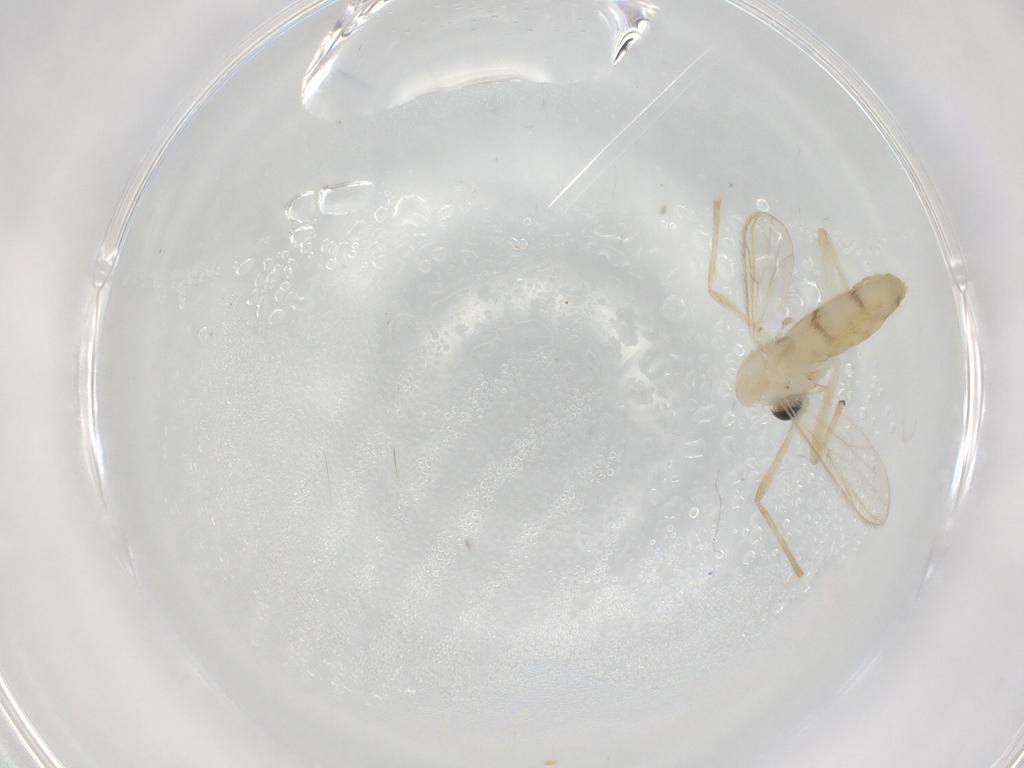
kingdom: Animalia
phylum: Arthropoda
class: Insecta
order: Diptera
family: Chironomidae
